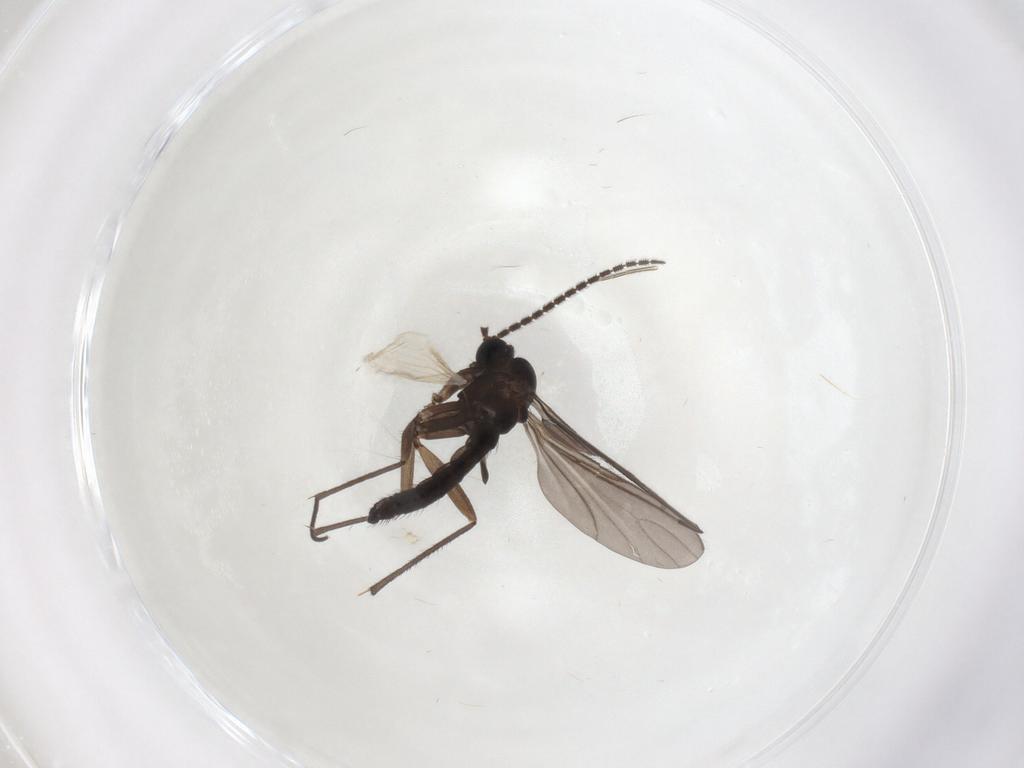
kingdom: Animalia
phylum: Arthropoda
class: Insecta
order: Diptera
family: Sciaridae
